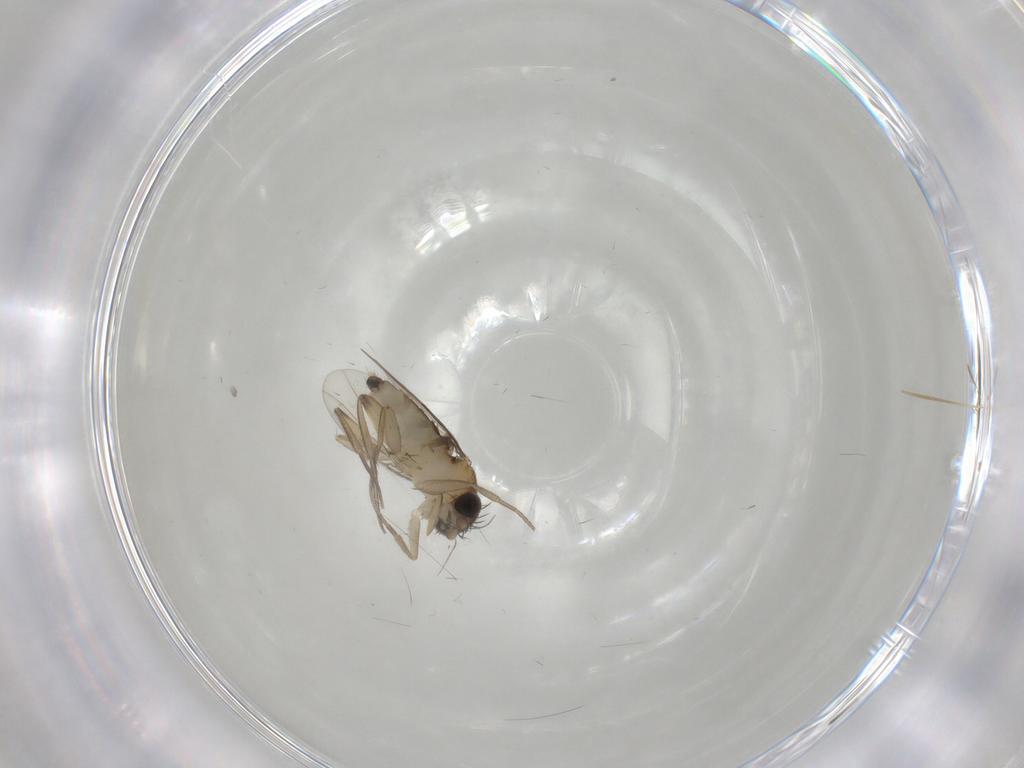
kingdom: Animalia
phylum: Arthropoda
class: Insecta
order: Diptera
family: Phoridae
